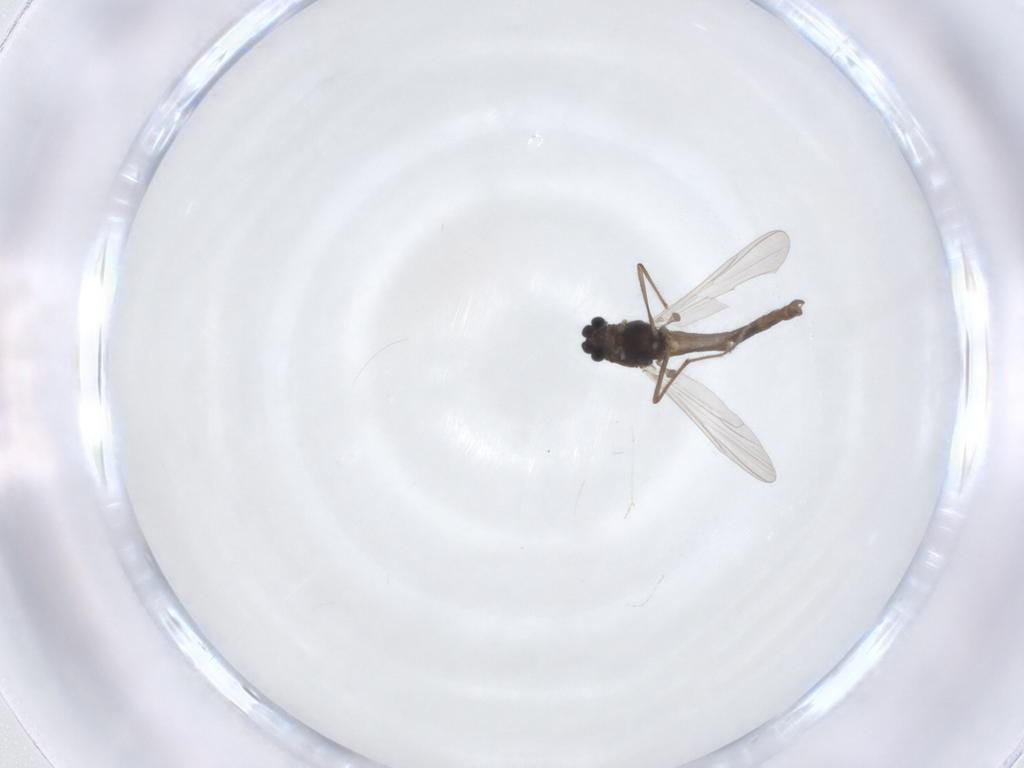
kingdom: Animalia
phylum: Arthropoda
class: Insecta
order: Diptera
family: Chironomidae
